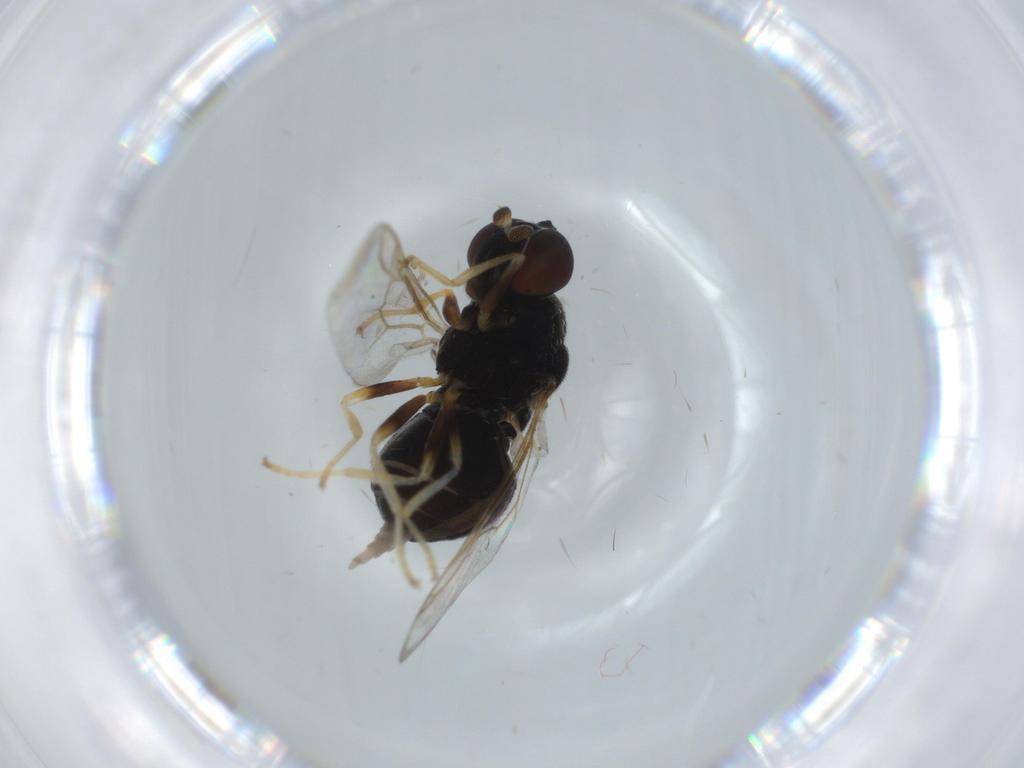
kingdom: Animalia
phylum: Arthropoda
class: Insecta
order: Diptera
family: Stratiomyidae
